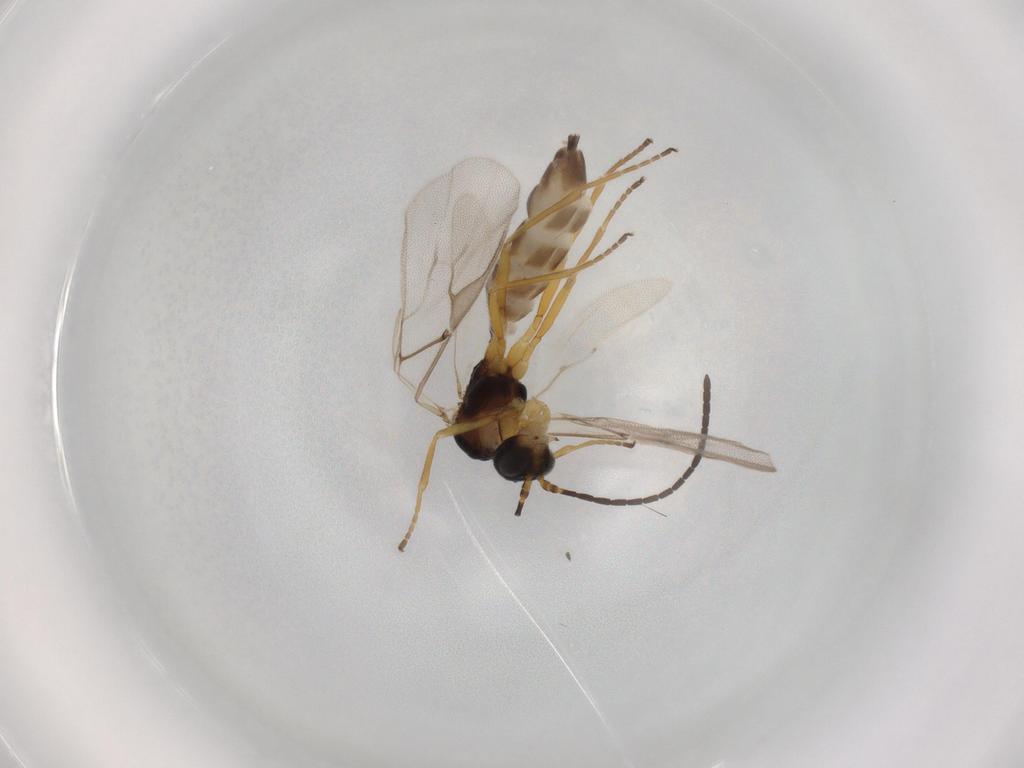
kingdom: Animalia
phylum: Arthropoda
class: Insecta
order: Hymenoptera
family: Braconidae
